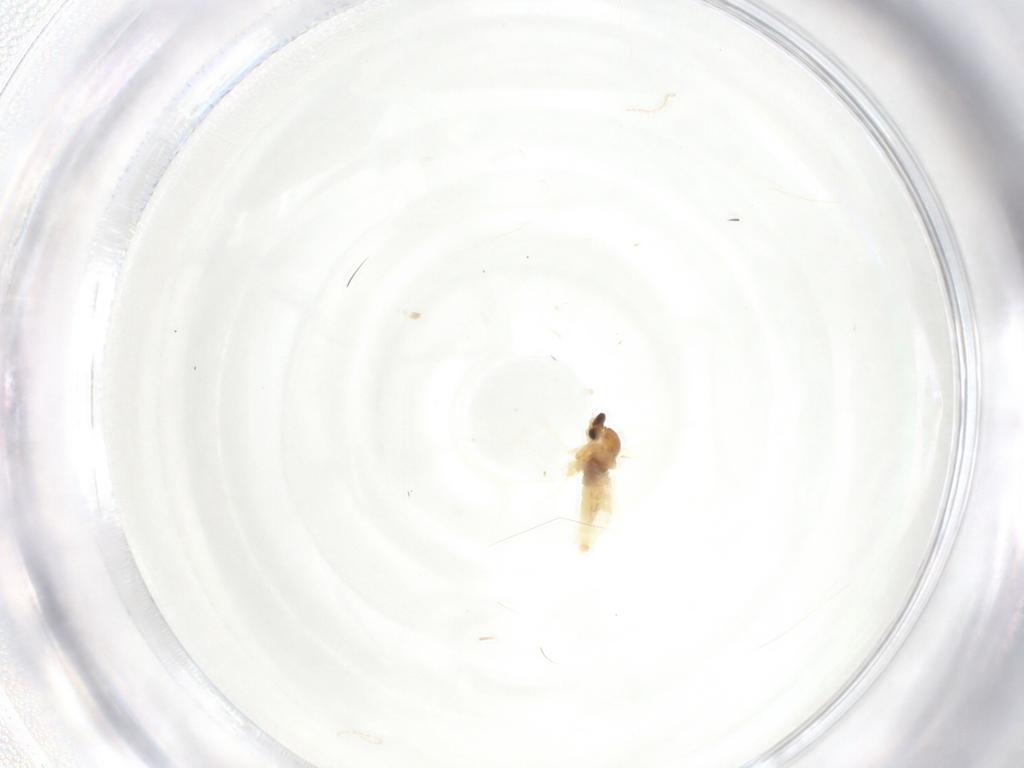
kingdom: Animalia
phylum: Arthropoda
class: Insecta
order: Diptera
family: Cecidomyiidae
